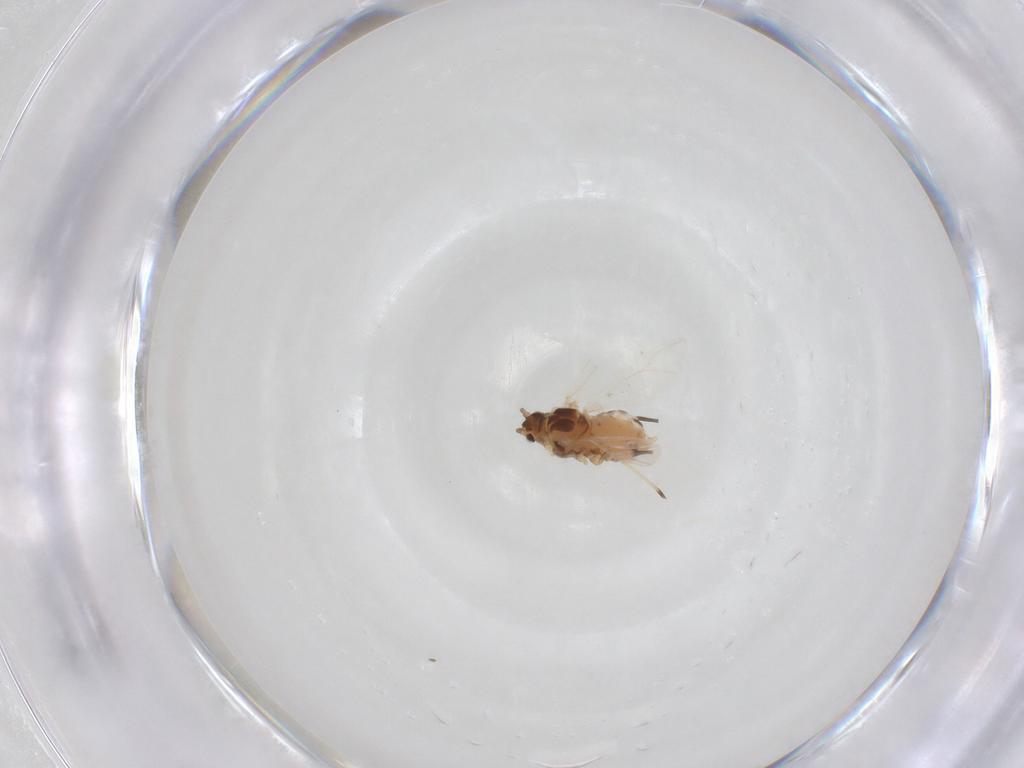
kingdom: Animalia
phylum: Arthropoda
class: Insecta
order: Hemiptera
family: Aphididae
